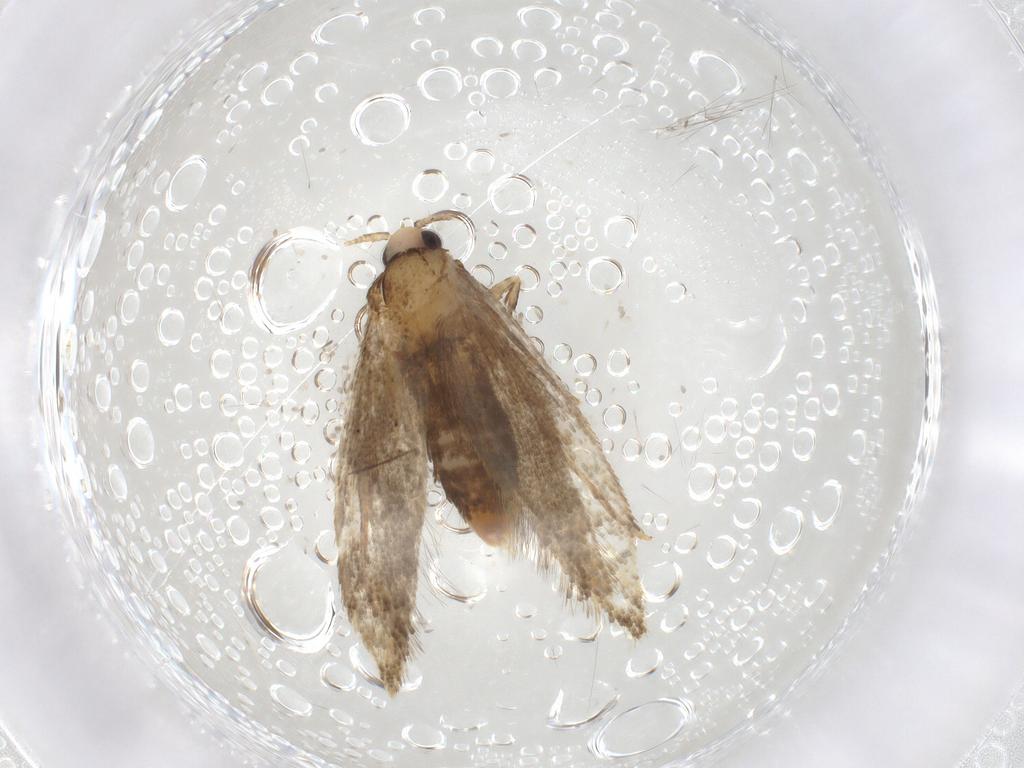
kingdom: Animalia
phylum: Arthropoda
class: Insecta
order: Lepidoptera
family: Tineidae
